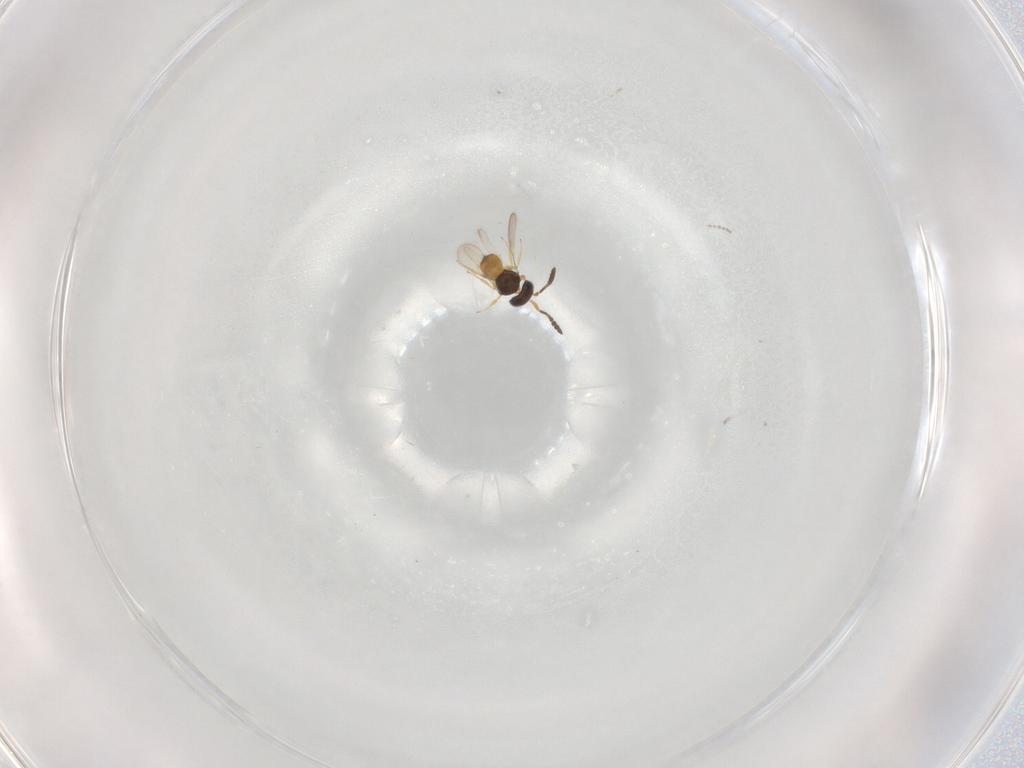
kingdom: Animalia
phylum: Arthropoda
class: Insecta
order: Hymenoptera
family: Scelionidae
